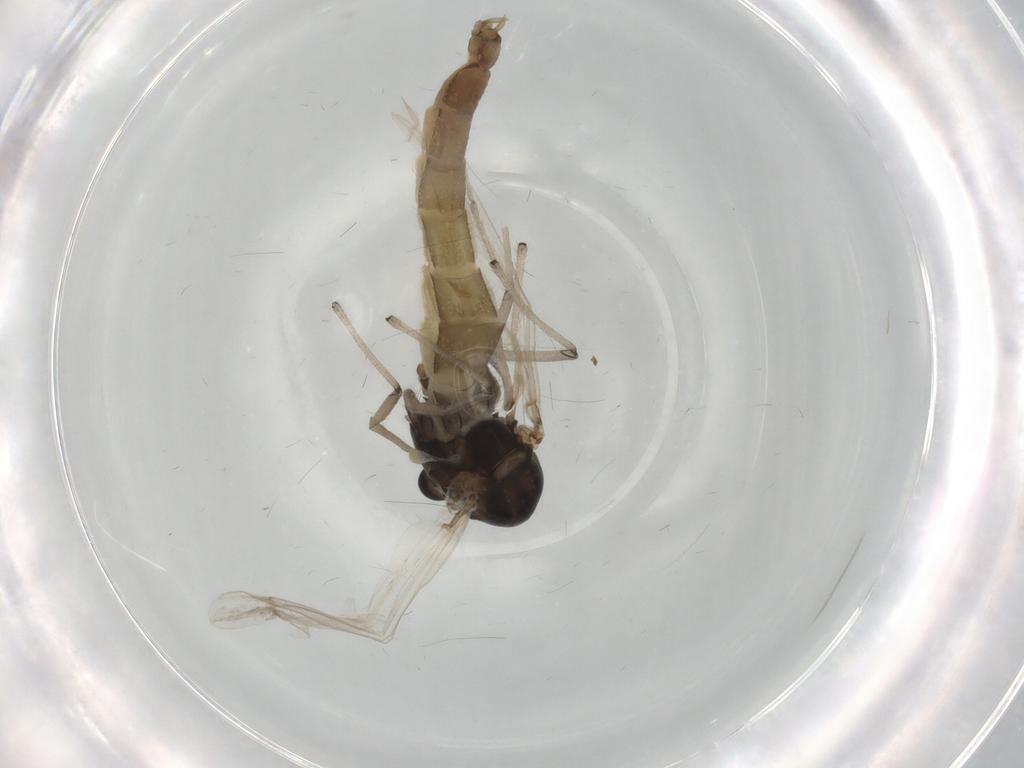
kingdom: Animalia
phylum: Arthropoda
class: Insecta
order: Diptera
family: Chironomidae
